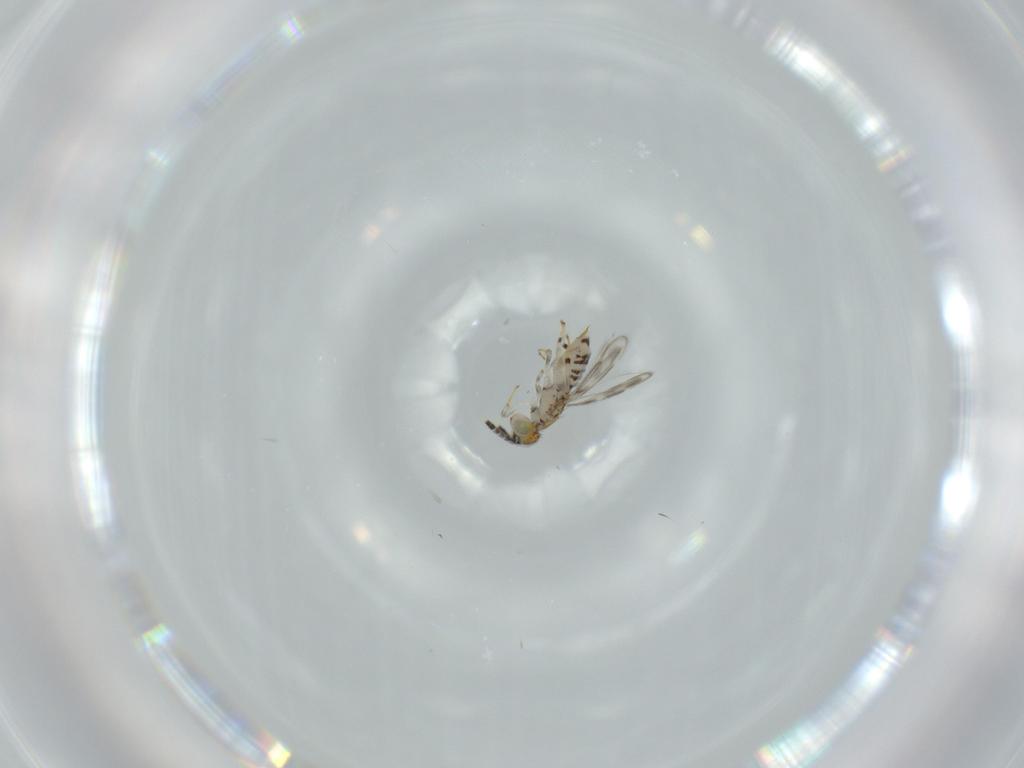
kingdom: Animalia
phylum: Arthropoda
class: Insecta
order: Hymenoptera
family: Aphelinidae
